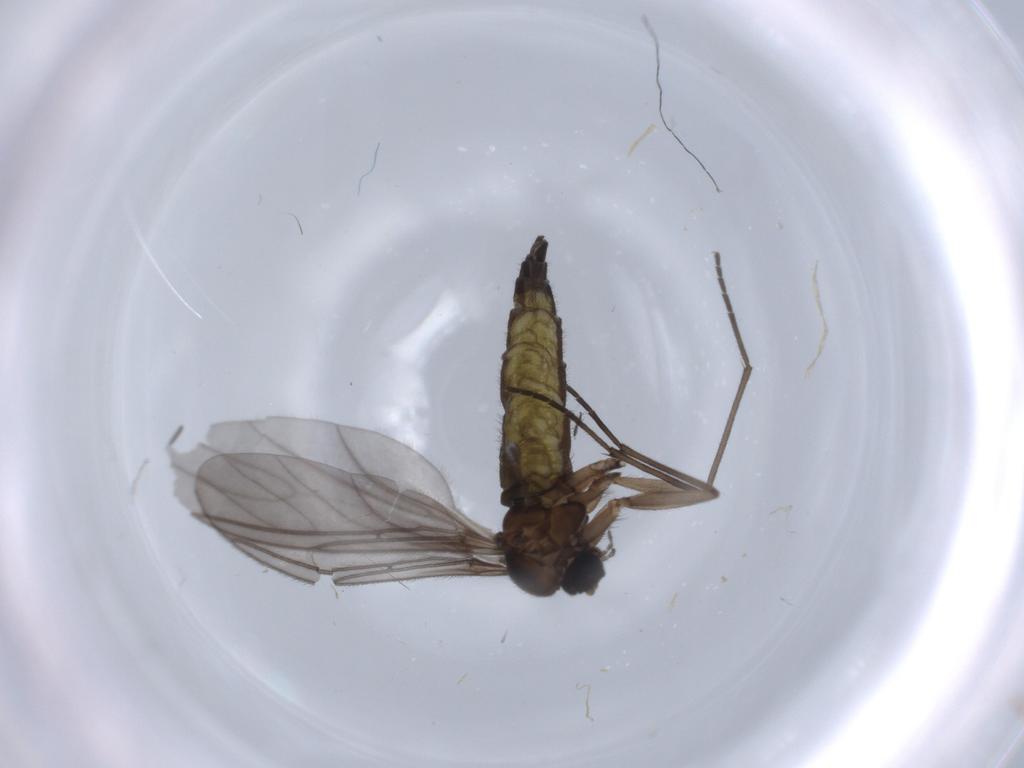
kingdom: Animalia
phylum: Arthropoda
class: Insecta
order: Diptera
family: Sciaridae
